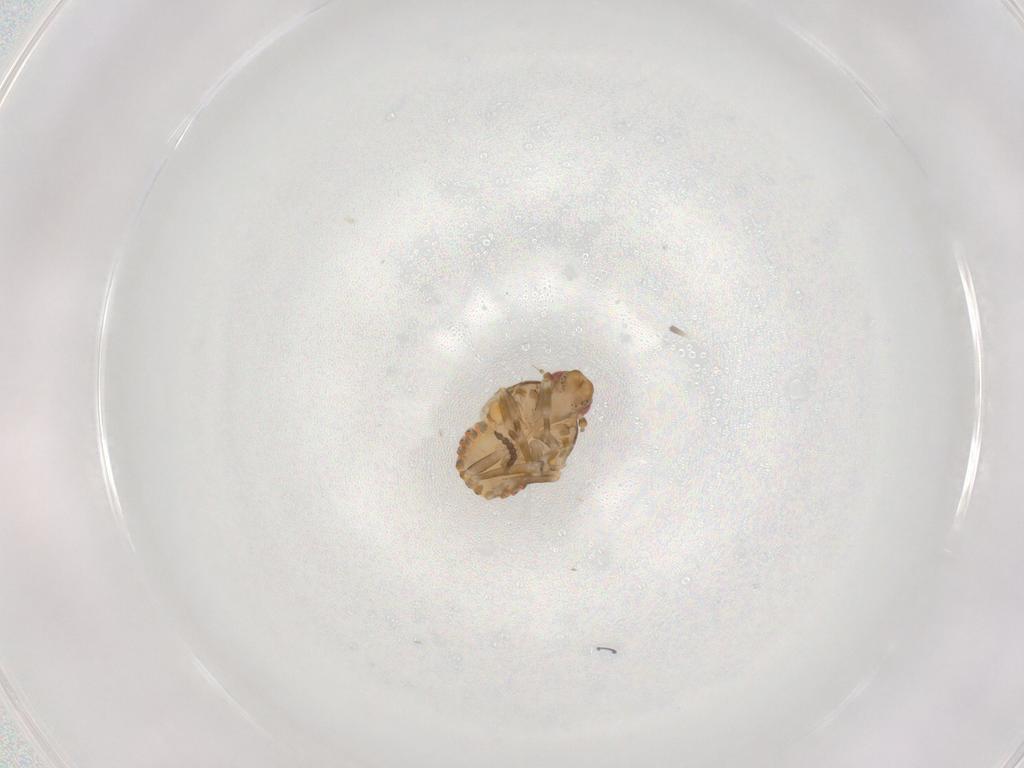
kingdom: Animalia
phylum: Arthropoda
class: Insecta
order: Hemiptera
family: Flatidae
